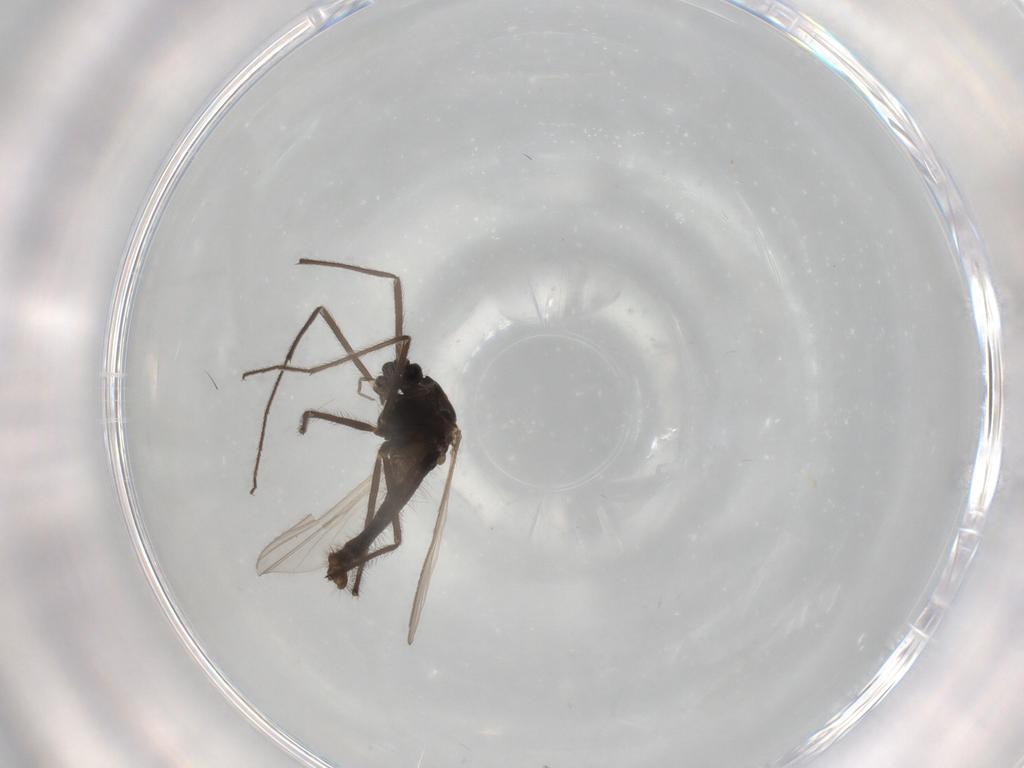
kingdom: Animalia
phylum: Arthropoda
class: Insecta
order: Diptera
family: Chironomidae
